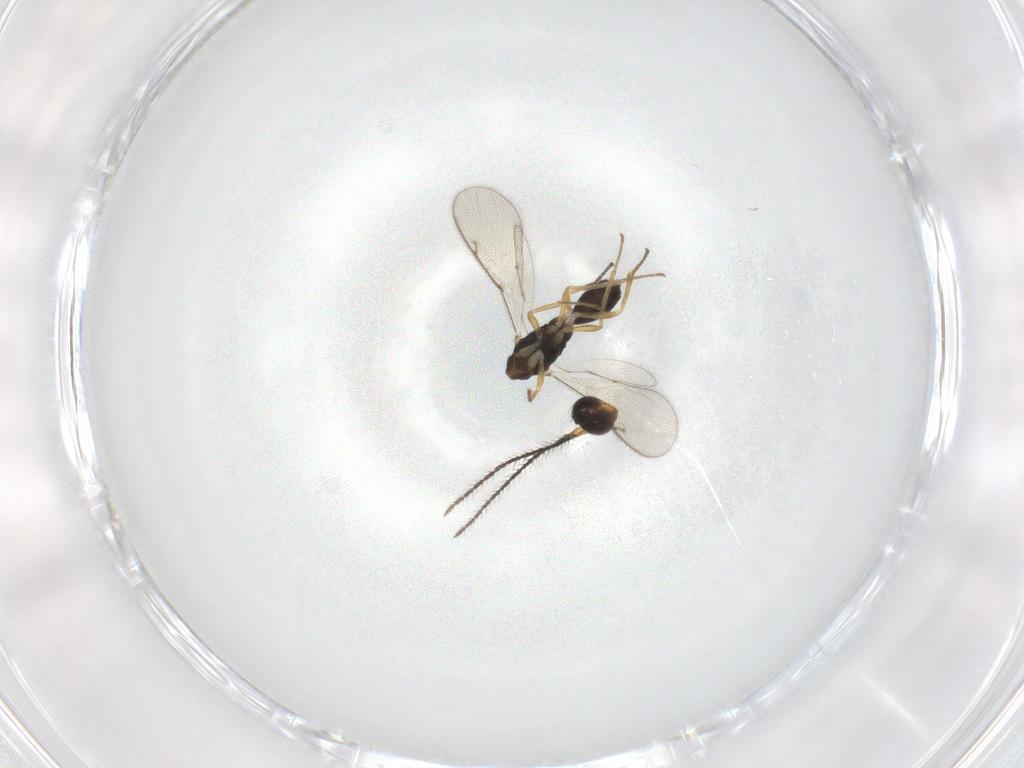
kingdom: Animalia
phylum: Arthropoda
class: Insecta
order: Hymenoptera
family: Diparidae
